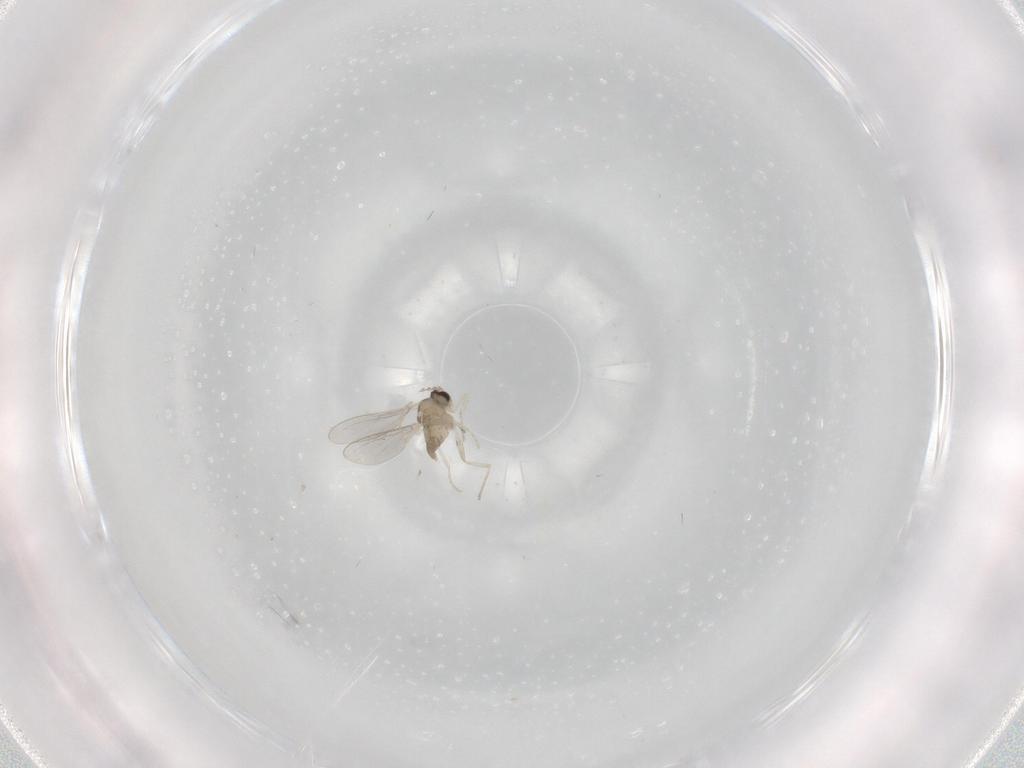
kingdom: Animalia
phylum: Arthropoda
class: Insecta
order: Diptera
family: Cecidomyiidae
